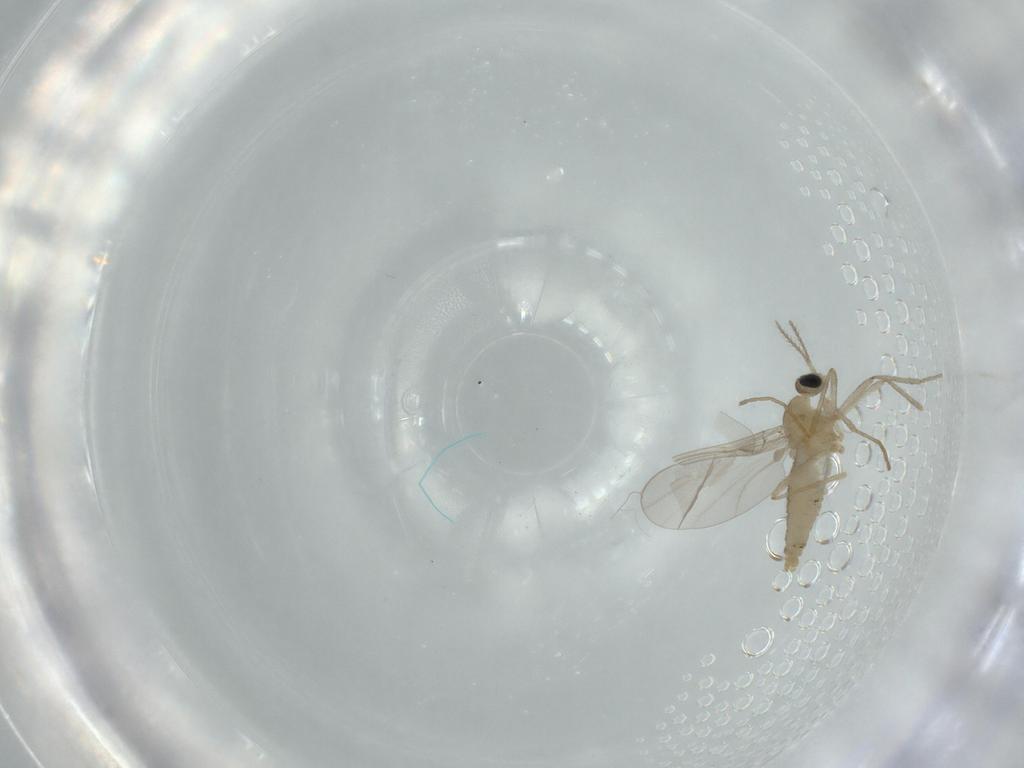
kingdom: Animalia
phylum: Arthropoda
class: Insecta
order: Diptera
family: Cecidomyiidae
